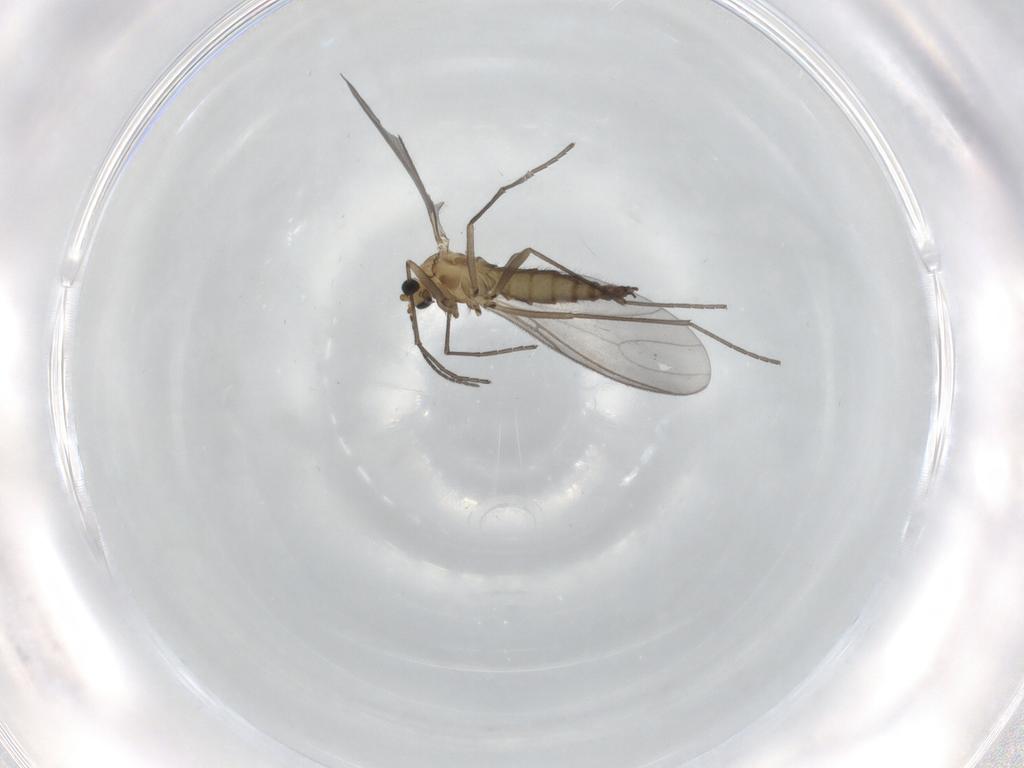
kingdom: Animalia
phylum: Arthropoda
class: Insecta
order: Diptera
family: Sciaridae
